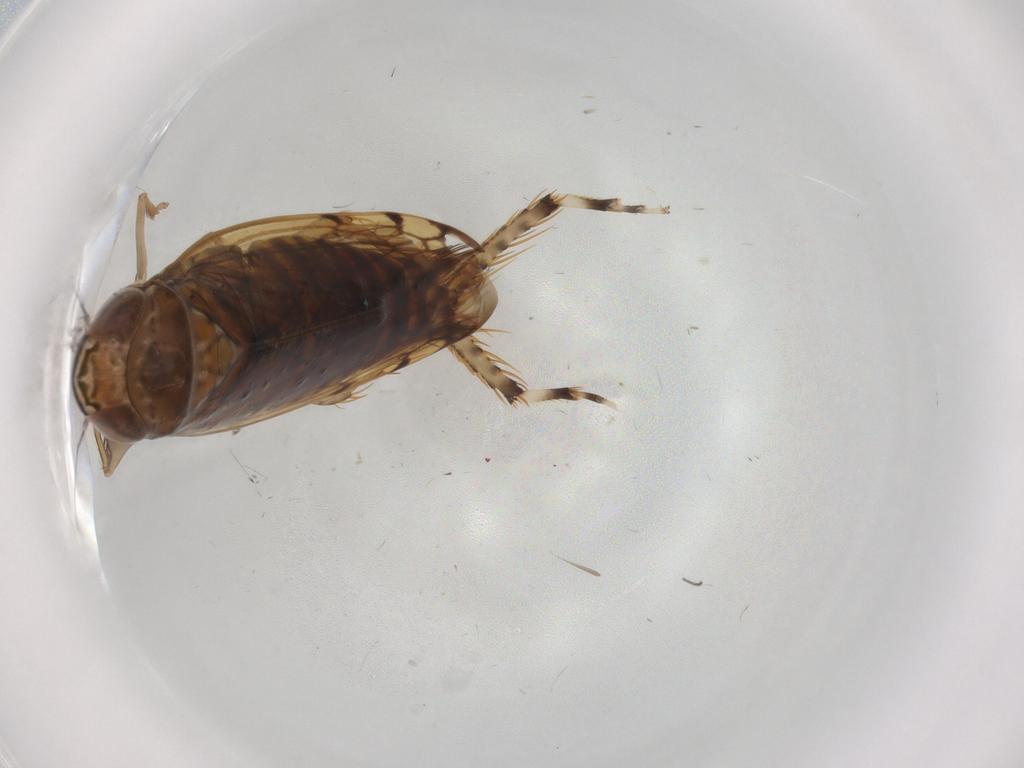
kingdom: Animalia
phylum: Arthropoda
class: Insecta
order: Hemiptera
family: Cicadellidae
